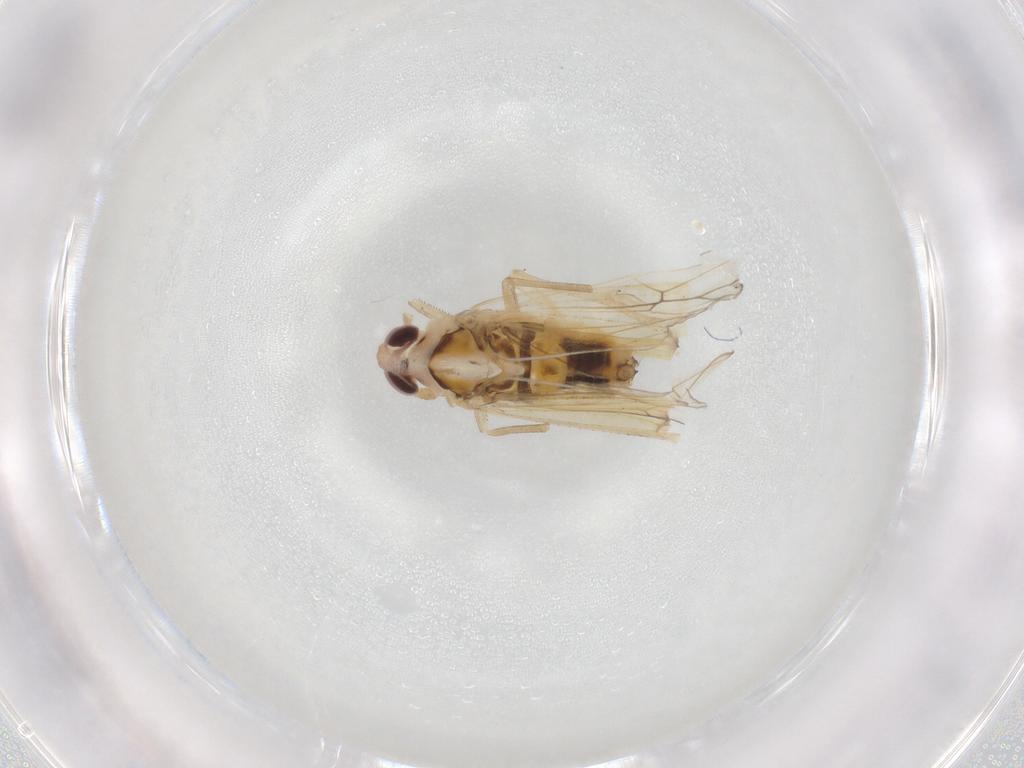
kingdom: Animalia
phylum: Arthropoda
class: Insecta
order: Hemiptera
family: Delphacidae
